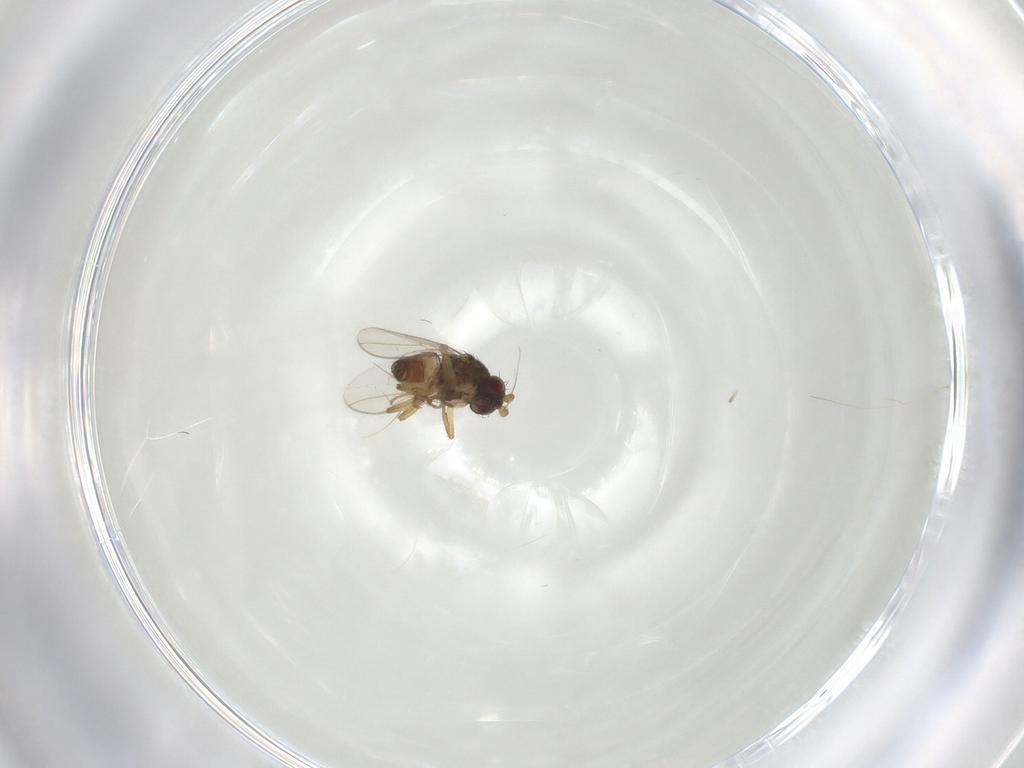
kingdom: Animalia
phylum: Arthropoda
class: Insecta
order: Diptera
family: Sphaeroceridae
